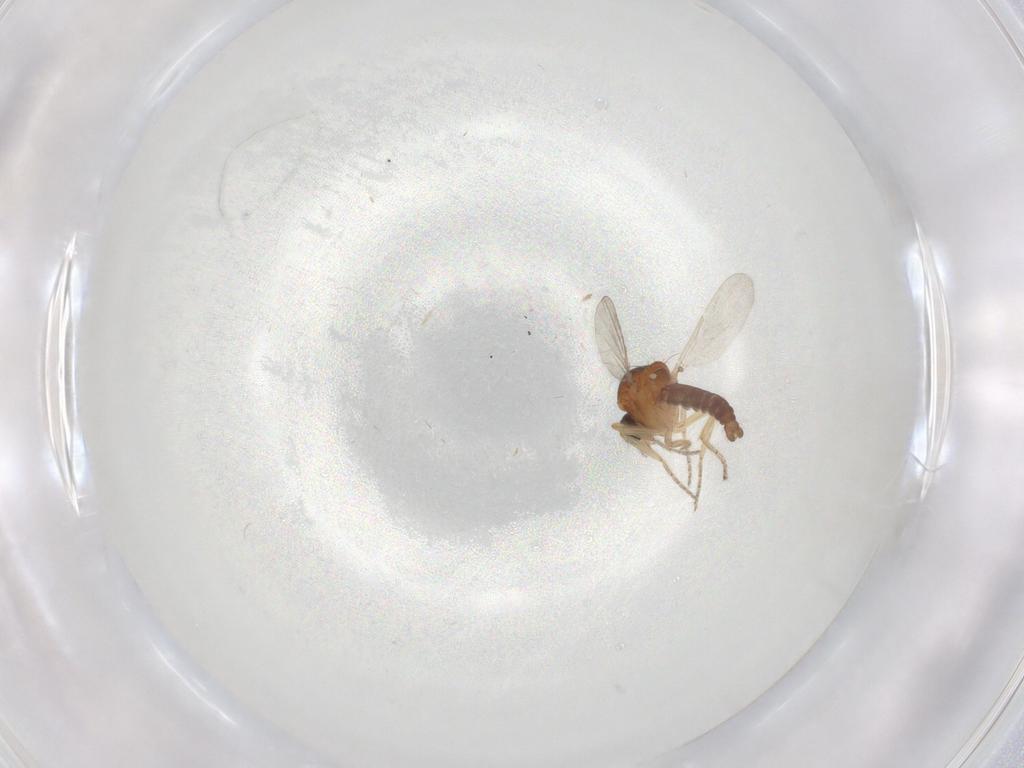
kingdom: Animalia
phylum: Arthropoda
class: Insecta
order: Diptera
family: Ceratopogonidae
